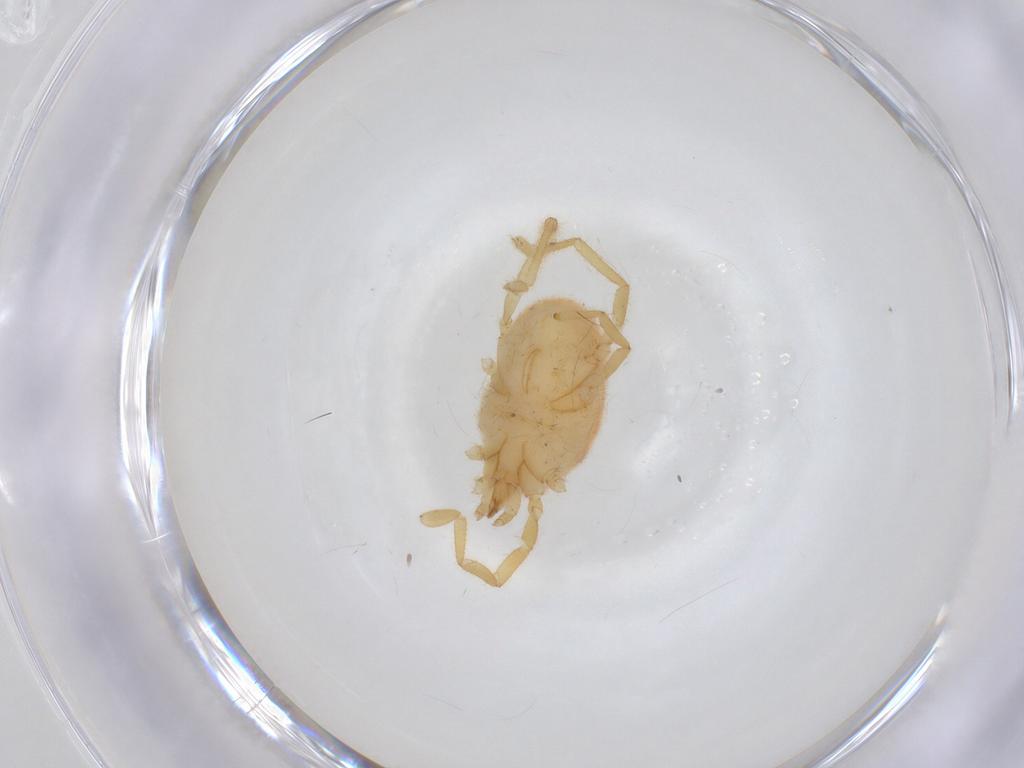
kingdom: Animalia
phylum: Arthropoda
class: Arachnida
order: Trombidiformes
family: Erythraeidae
